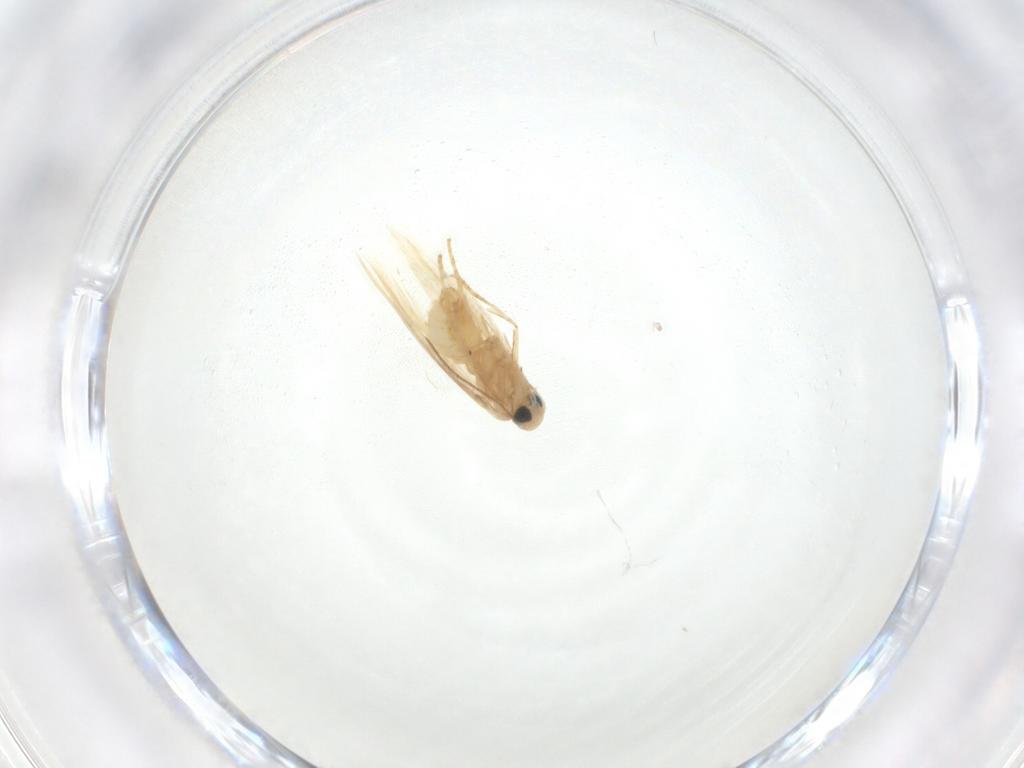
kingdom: Animalia
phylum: Arthropoda
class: Insecta
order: Lepidoptera
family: Tischeriidae
